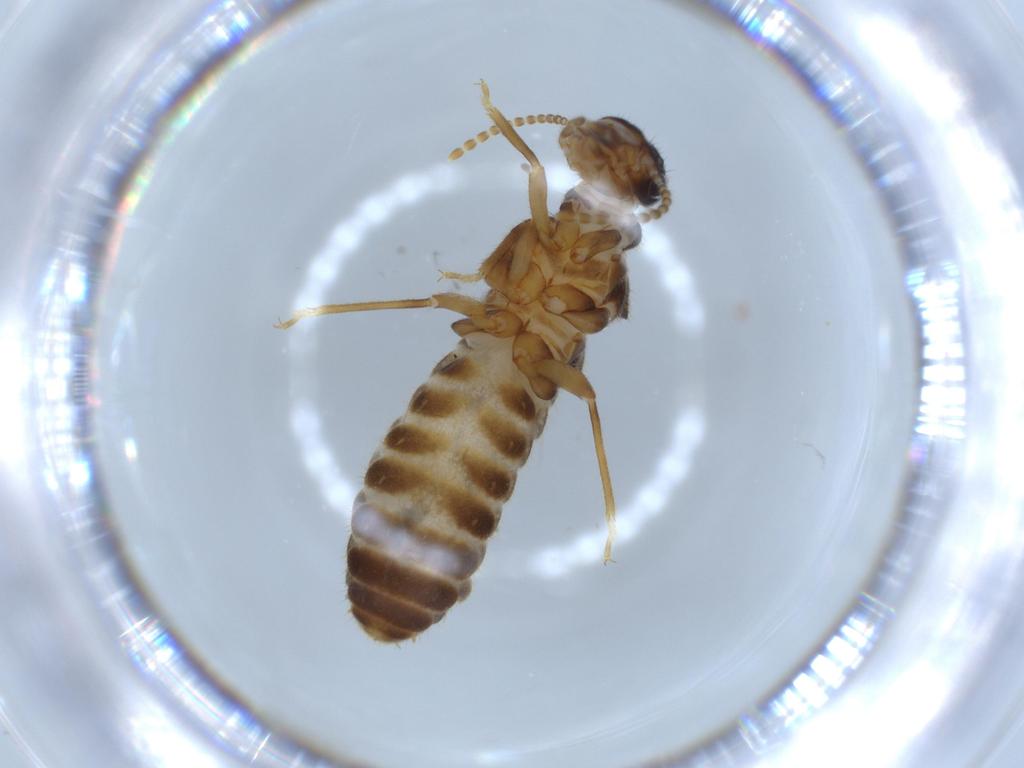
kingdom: Animalia
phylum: Arthropoda
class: Insecta
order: Blattodea
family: Termitidae
